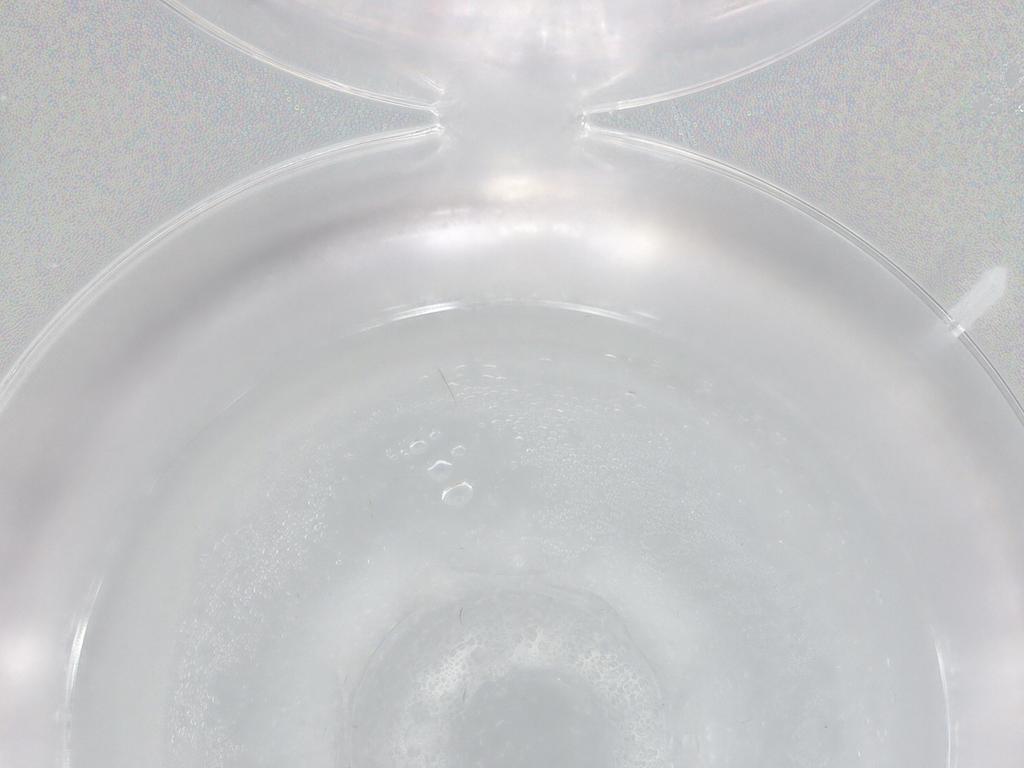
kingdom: Animalia
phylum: Arthropoda
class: Insecta
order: Diptera
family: Ceratopogonidae
